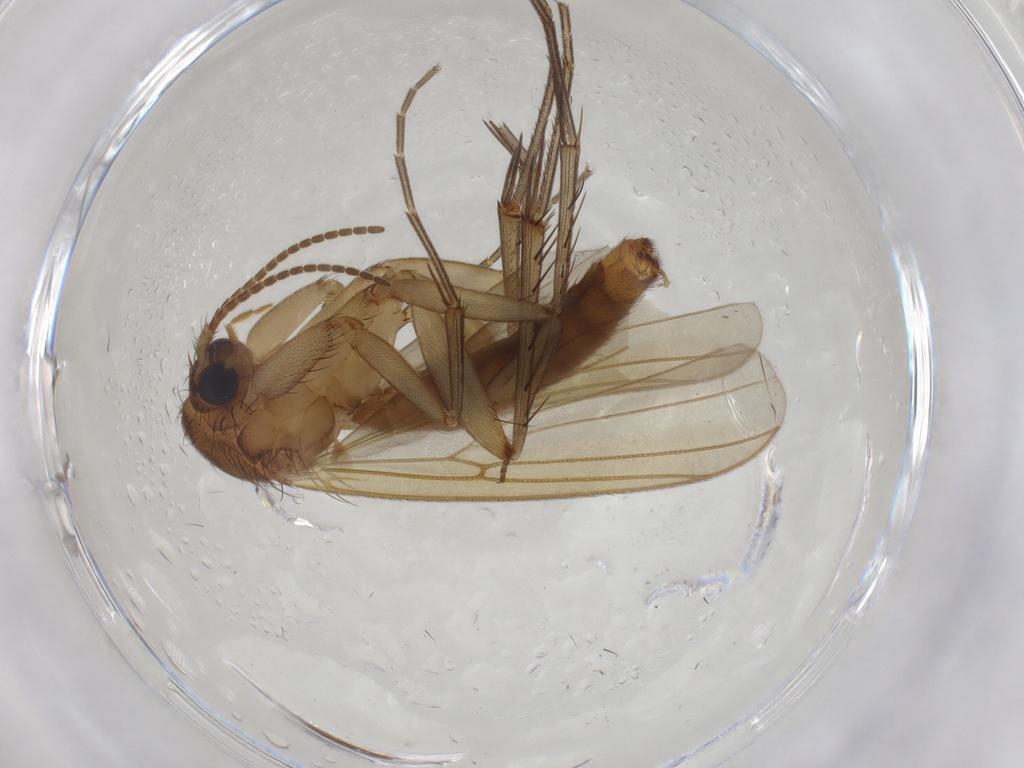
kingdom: Animalia
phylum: Arthropoda
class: Insecta
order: Diptera
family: Mycetophilidae
